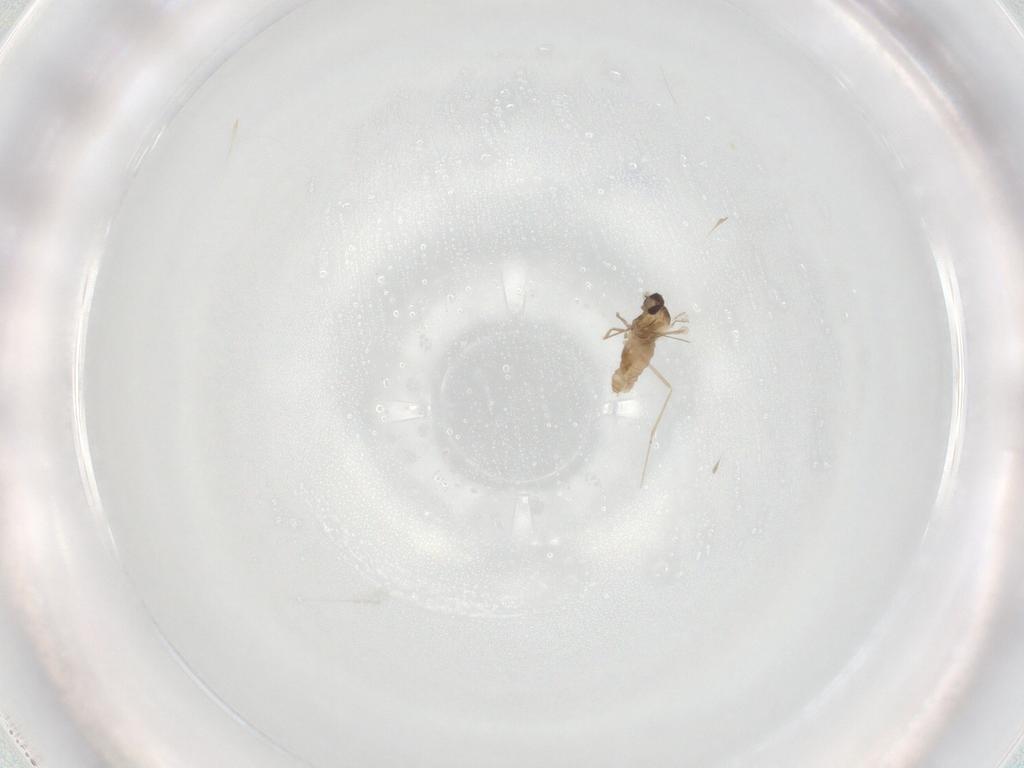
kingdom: Animalia
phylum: Arthropoda
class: Insecta
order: Diptera
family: Cecidomyiidae
